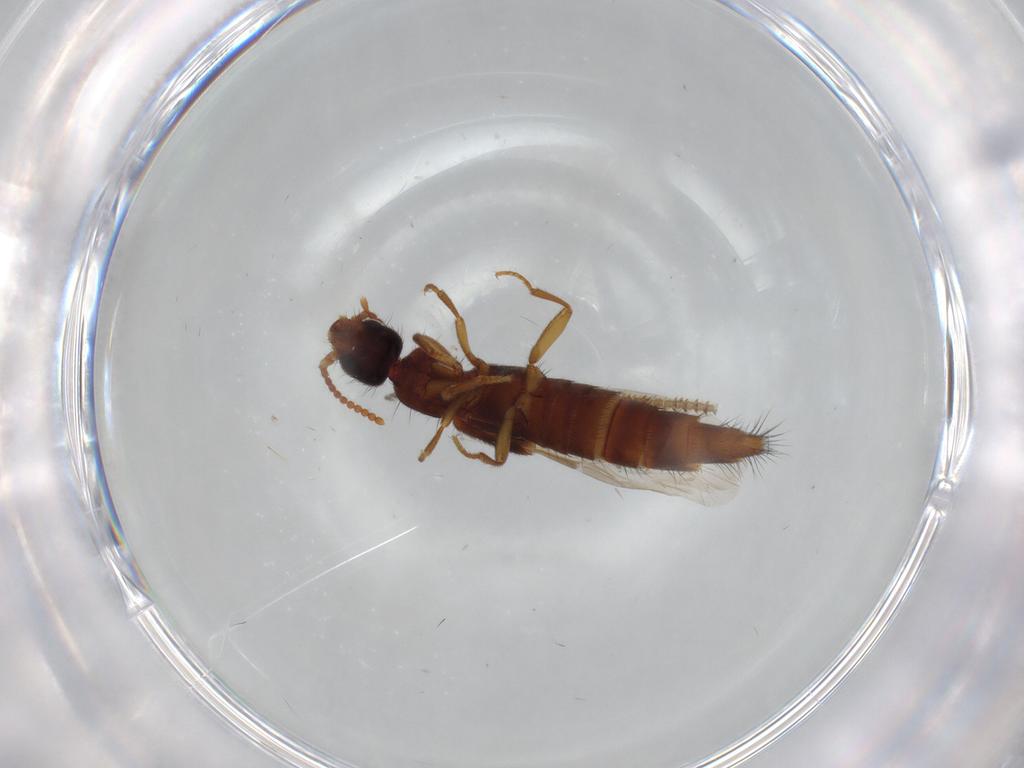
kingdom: Animalia
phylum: Arthropoda
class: Insecta
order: Coleoptera
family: Staphylinidae
